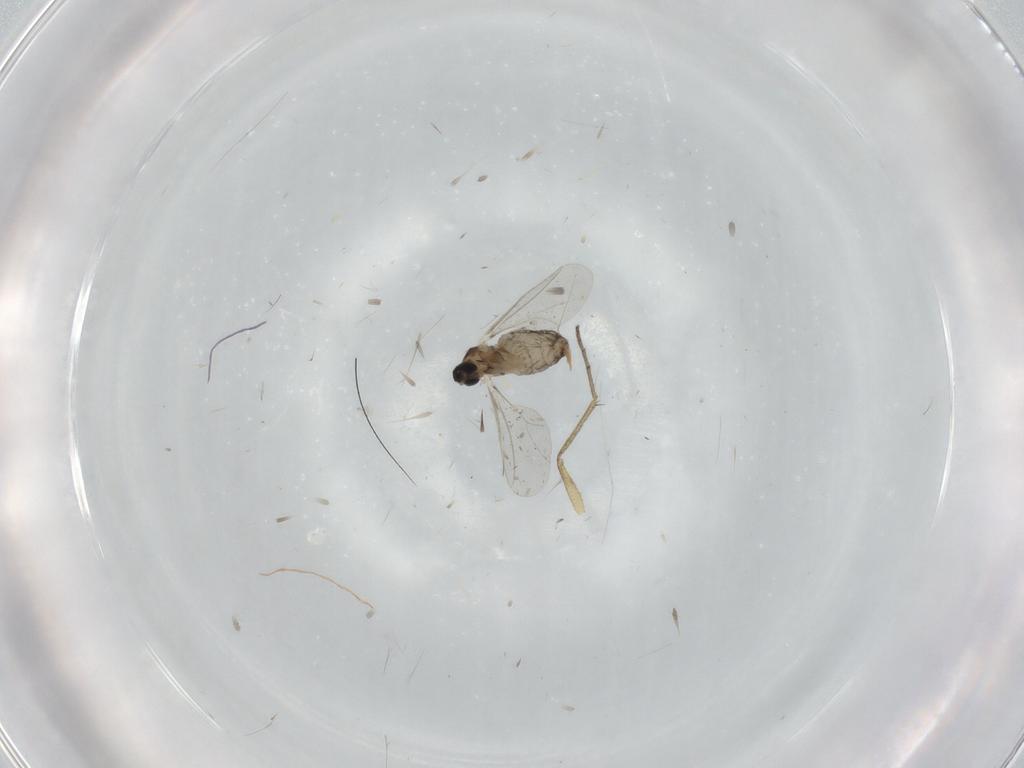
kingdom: Animalia
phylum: Arthropoda
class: Insecta
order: Diptera
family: Cecidomyiidae
